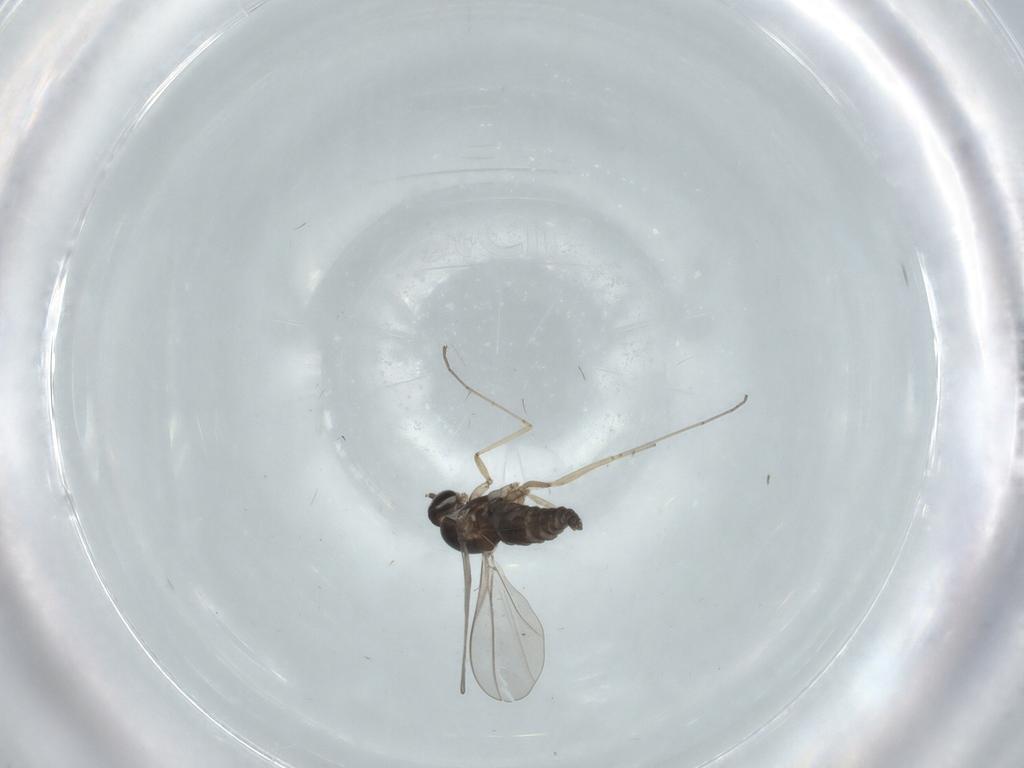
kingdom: Animalia
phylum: Arthropoda
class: Insecta
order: Diptera
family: Cecidomyiidae
